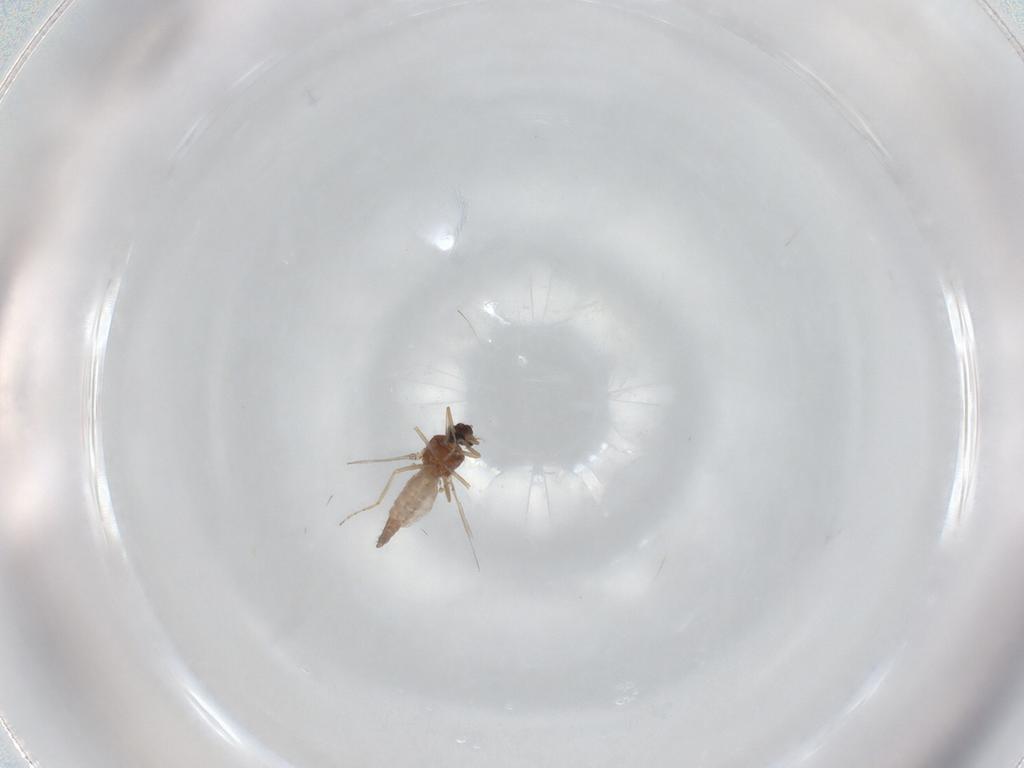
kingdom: Animalia
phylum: Arthropoda
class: Insecta
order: Diptera
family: Cecidomyiidae
